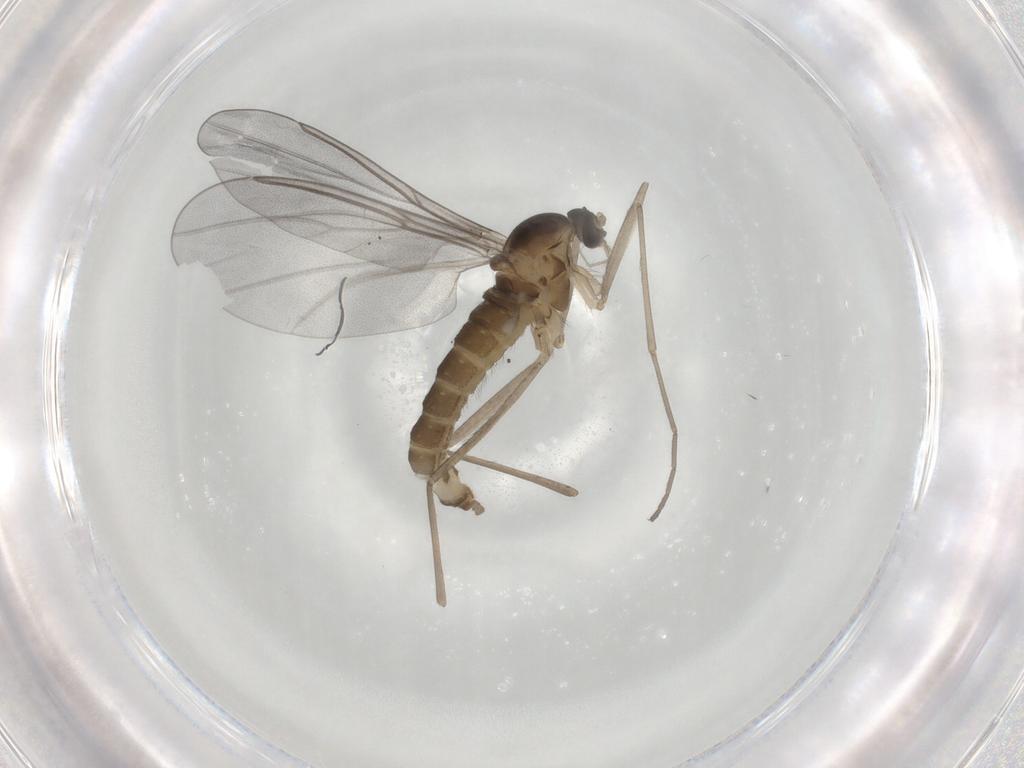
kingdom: Animalia
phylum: Arthropoda
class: Insecta
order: Diptera
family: Cecidomyiidae
